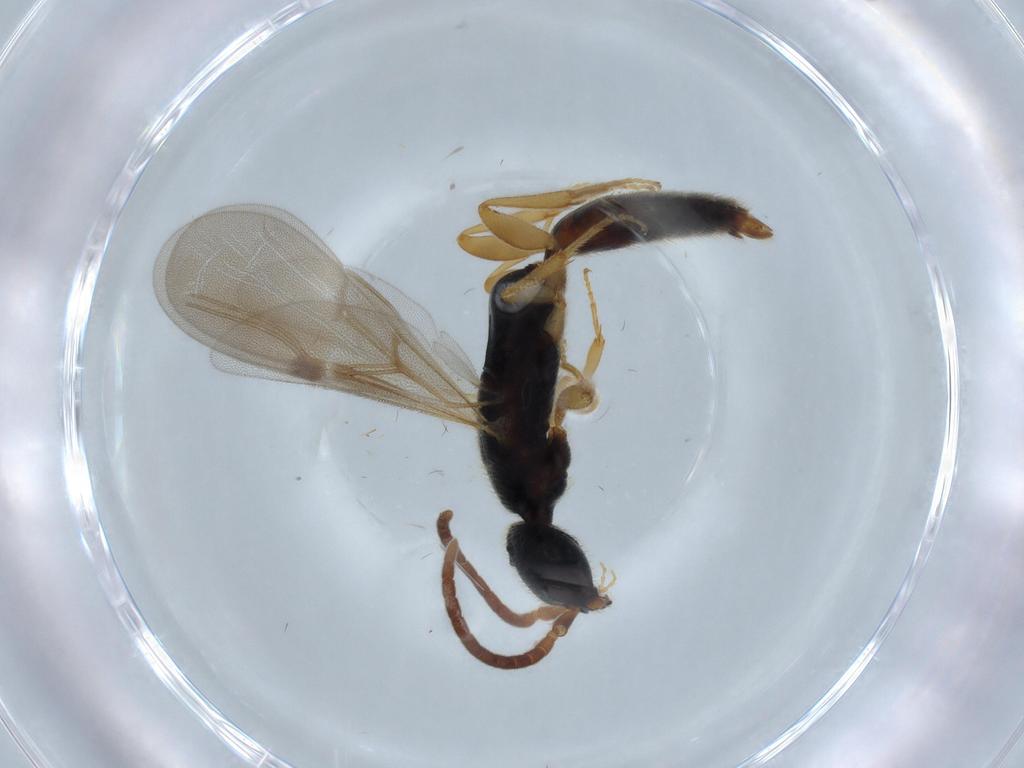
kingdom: Animalia
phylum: Arthropoda
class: Insecta
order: Hymenoptera
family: Bethylidae
